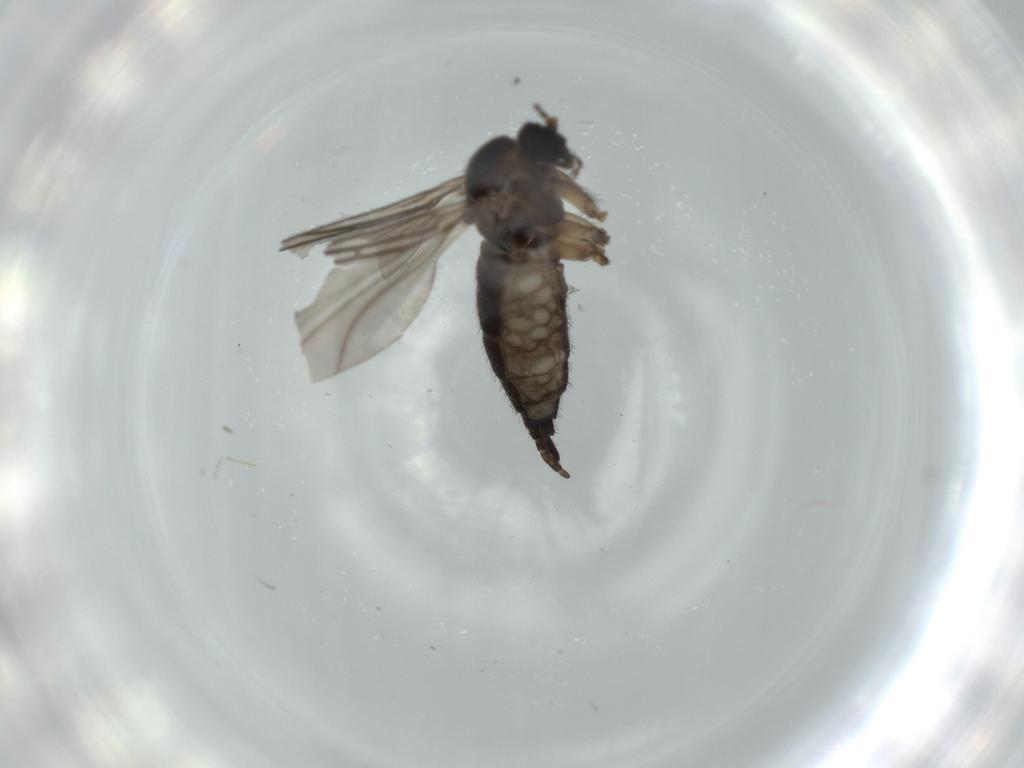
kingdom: Animalia
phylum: Arthropoda
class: Insecta
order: Diptera
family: Sciaridae
